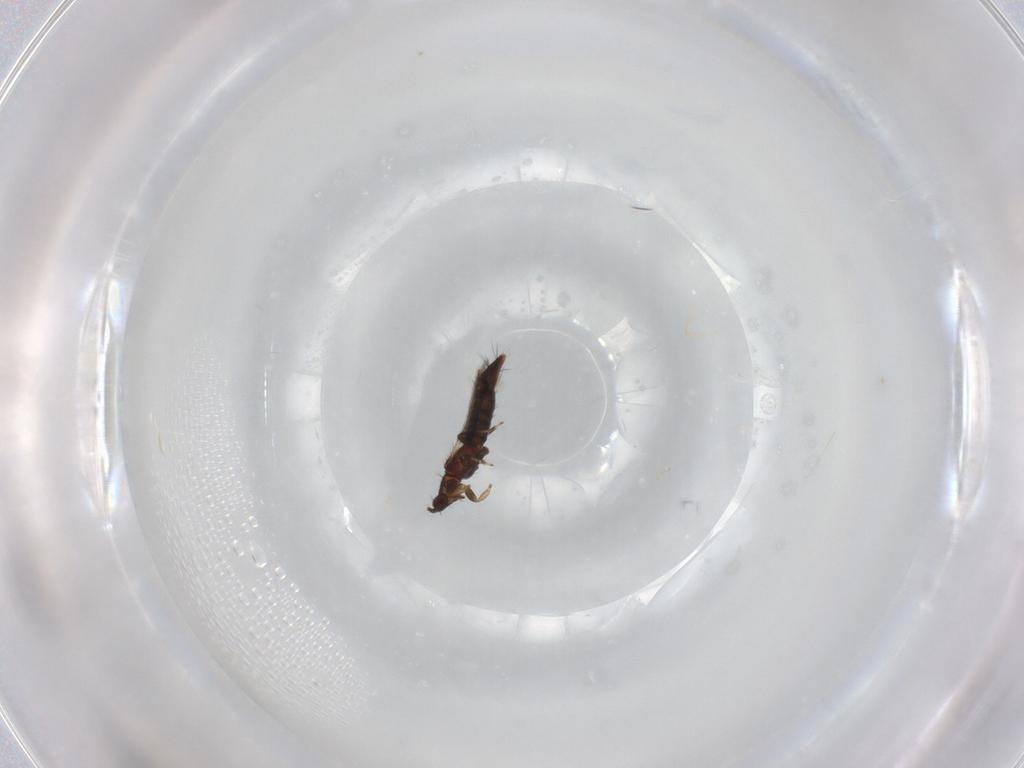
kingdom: Animalia
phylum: Arthropoda
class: Insecta
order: Thysanoptera
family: Thripidae
